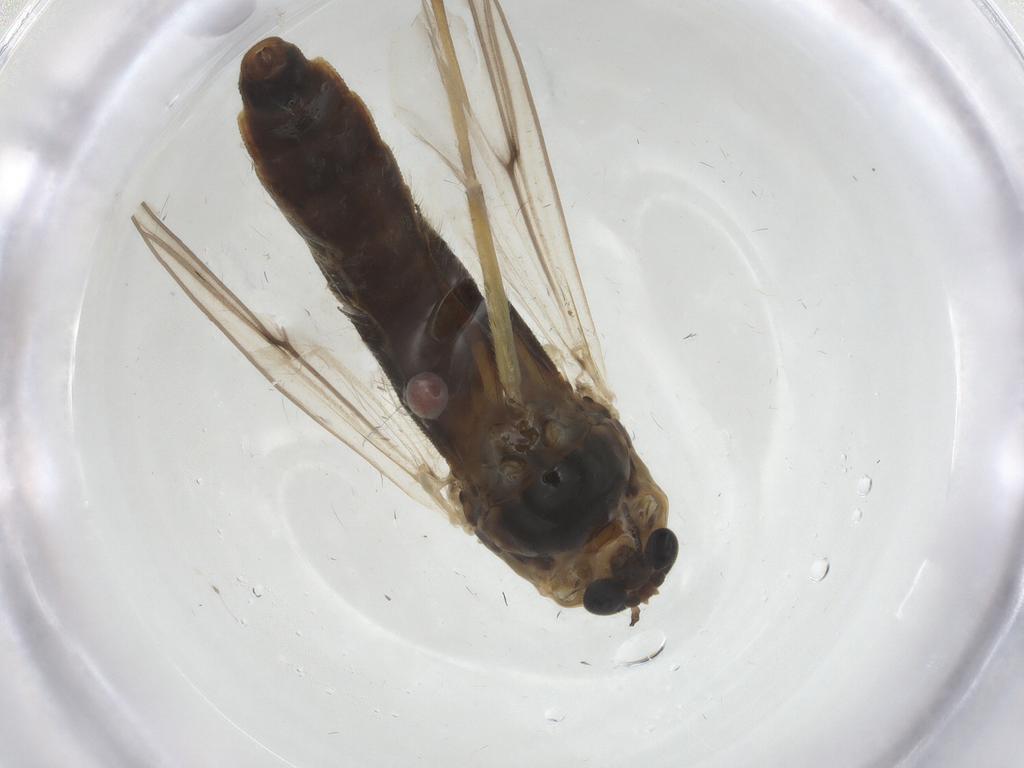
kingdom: Animalia
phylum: Arthropoda
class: Insecta
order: Diptera
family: Chironomidae
